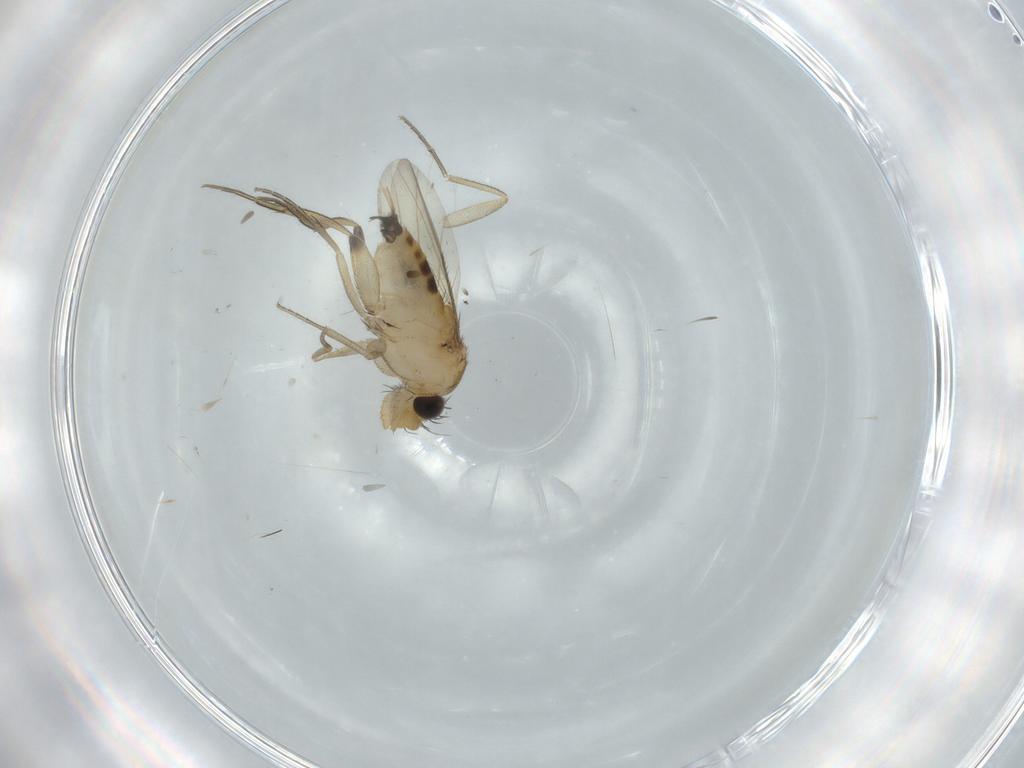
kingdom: Animalia
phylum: Arthropoda
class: Insecta
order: Diptera
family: Phoridae
